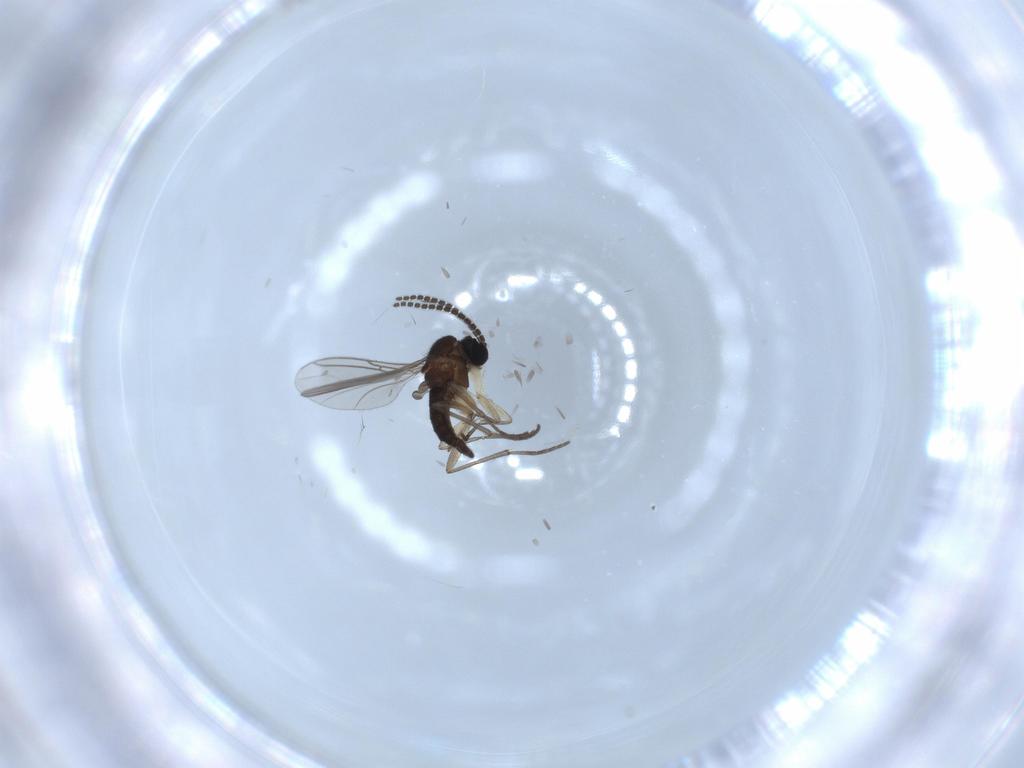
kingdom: Animalia
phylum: Arthropoda
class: Insecta
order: Diptera
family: Sciaridae
